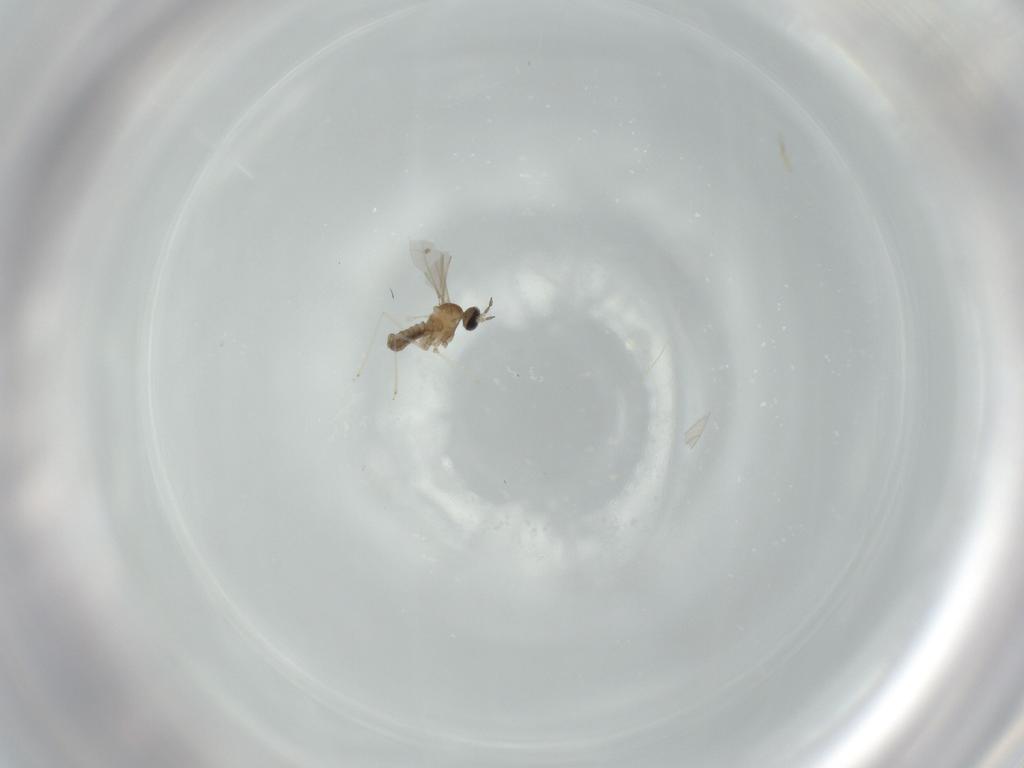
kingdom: Animalia
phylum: Arthropoda
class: Insecta
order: Diptera
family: Cecidomyiidae
